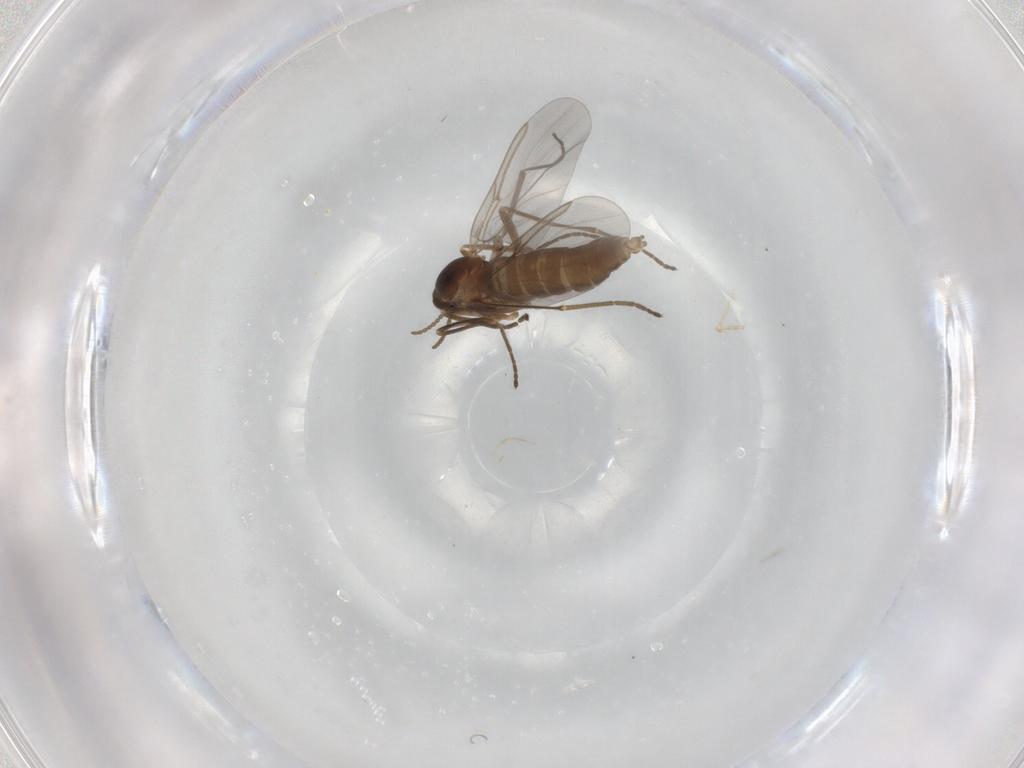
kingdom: Animalia
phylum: Arthropoda
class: Insecta
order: Diptera
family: Cecidomyiidae
